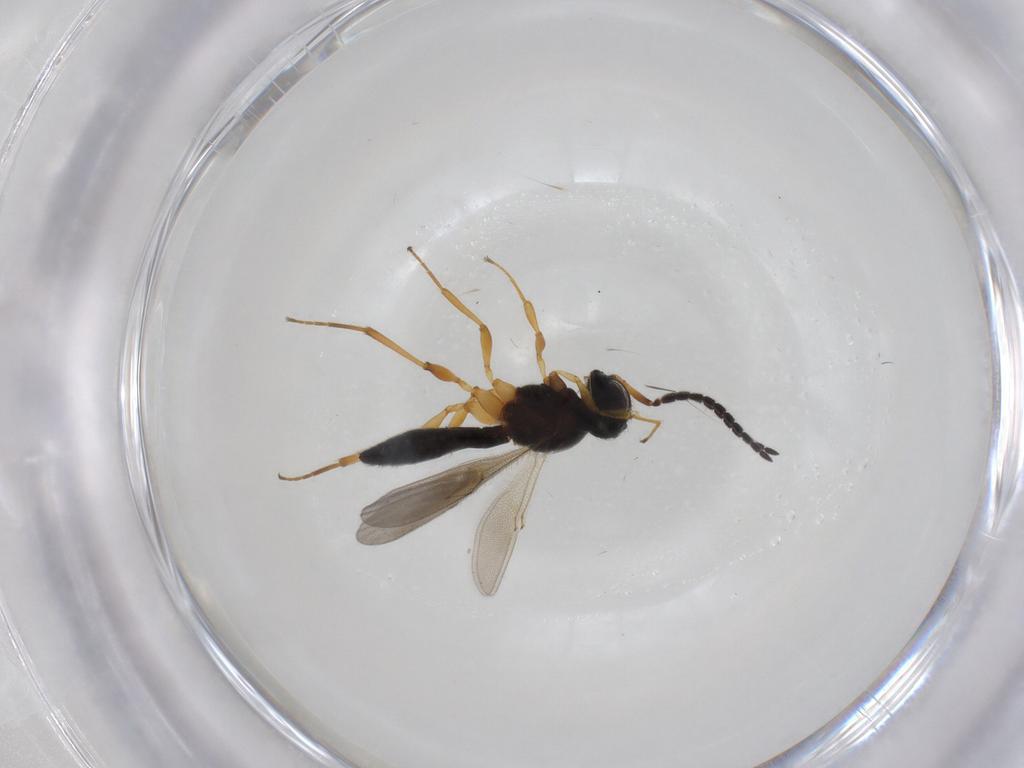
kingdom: Animalia
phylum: Arthropoda
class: Insecta
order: Hymenoptera
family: Scelionidae
